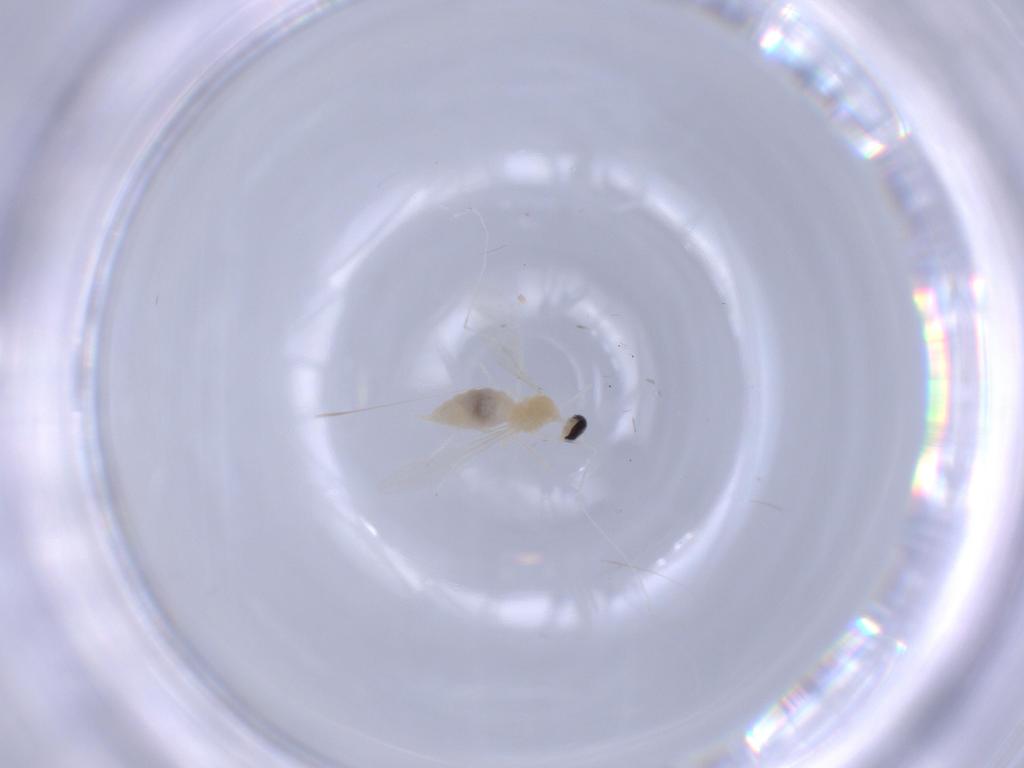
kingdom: Animalia
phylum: Arthropoda
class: Insecta
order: Diptera
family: Cecidomyiidae
